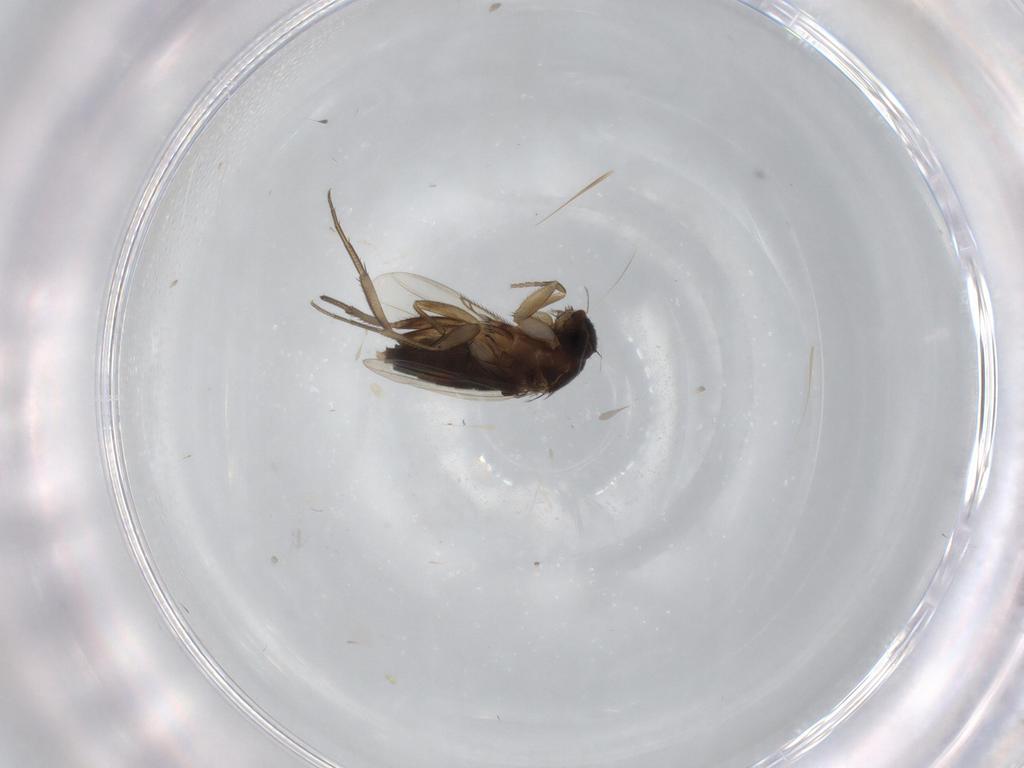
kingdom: Animalia
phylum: Arthropoda
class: Insecta
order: Diptera
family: Phoridae
